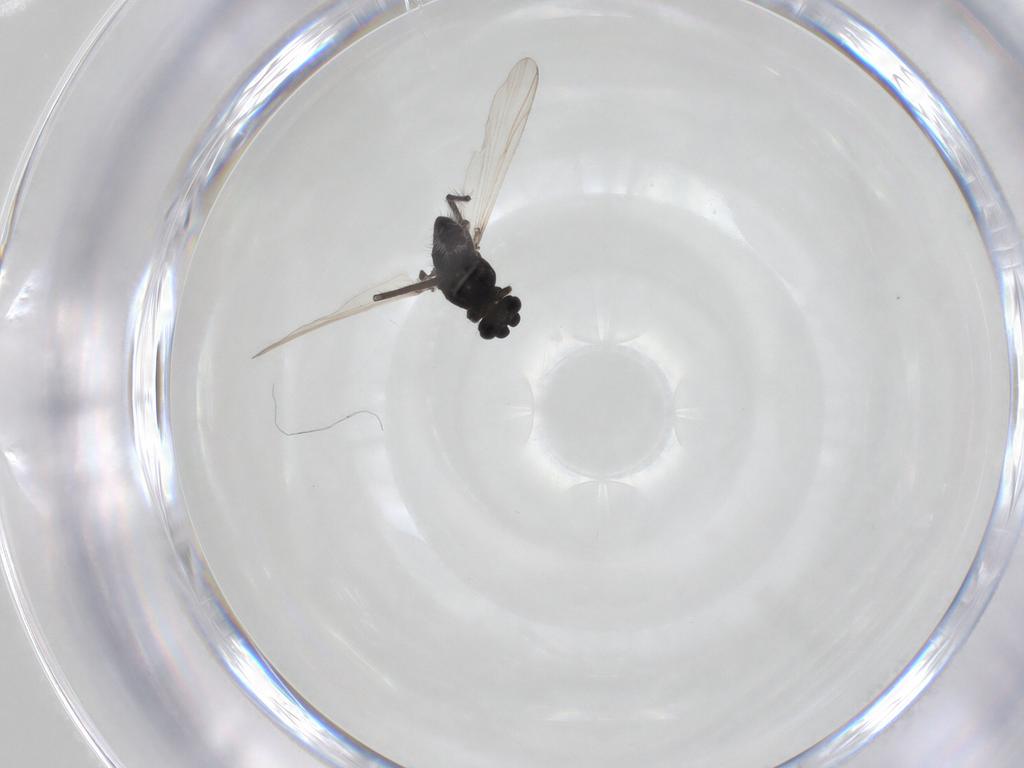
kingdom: Animalia
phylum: Arthropoda
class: Insecta
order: Diptera
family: Sciaridae
